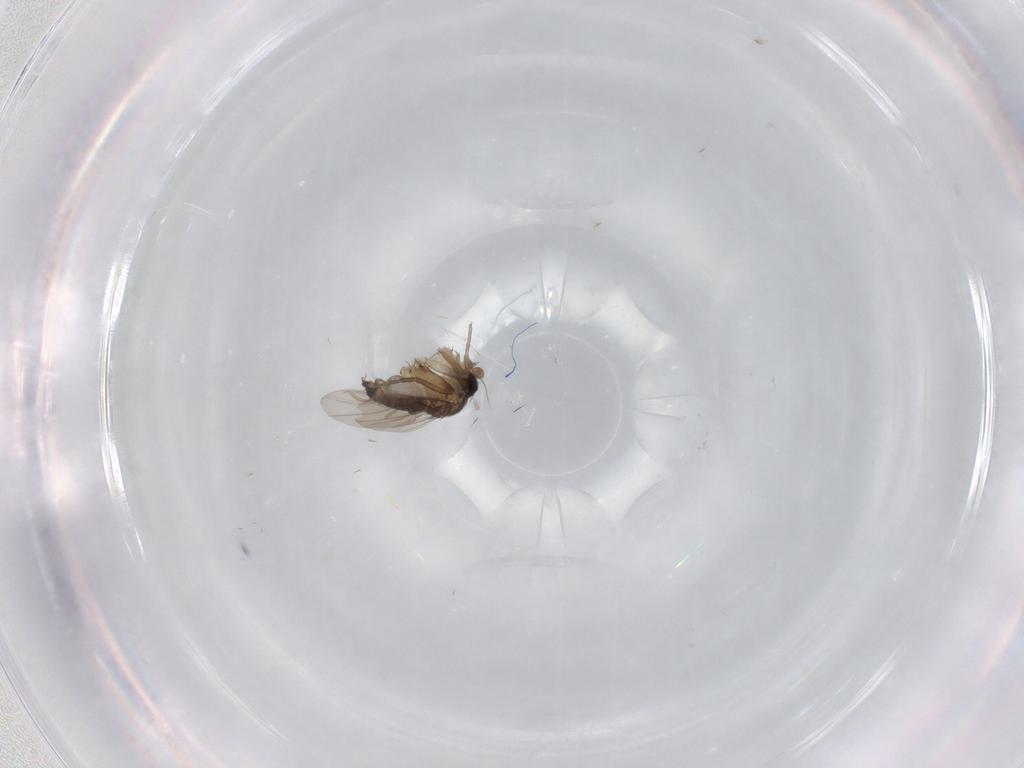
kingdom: Animalia
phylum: Arthropoda
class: Insecta
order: Diptera
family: Phoridae
